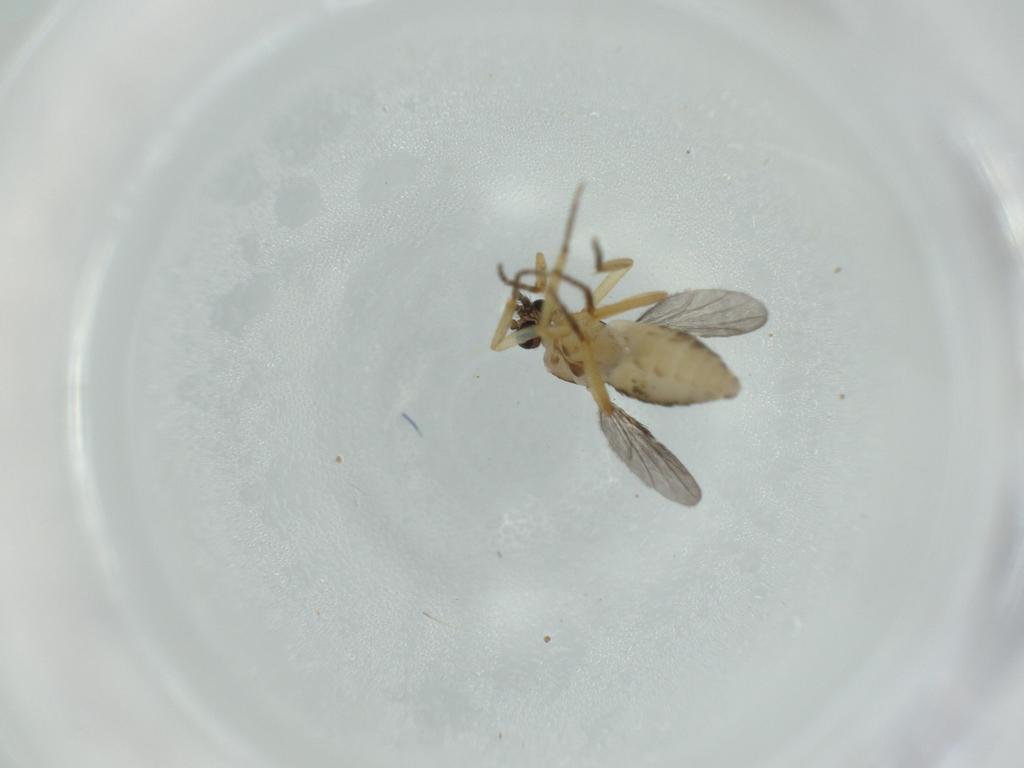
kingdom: Animalia
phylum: Arthropoda
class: Insecta
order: Diptera
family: Ceratopogonidae
